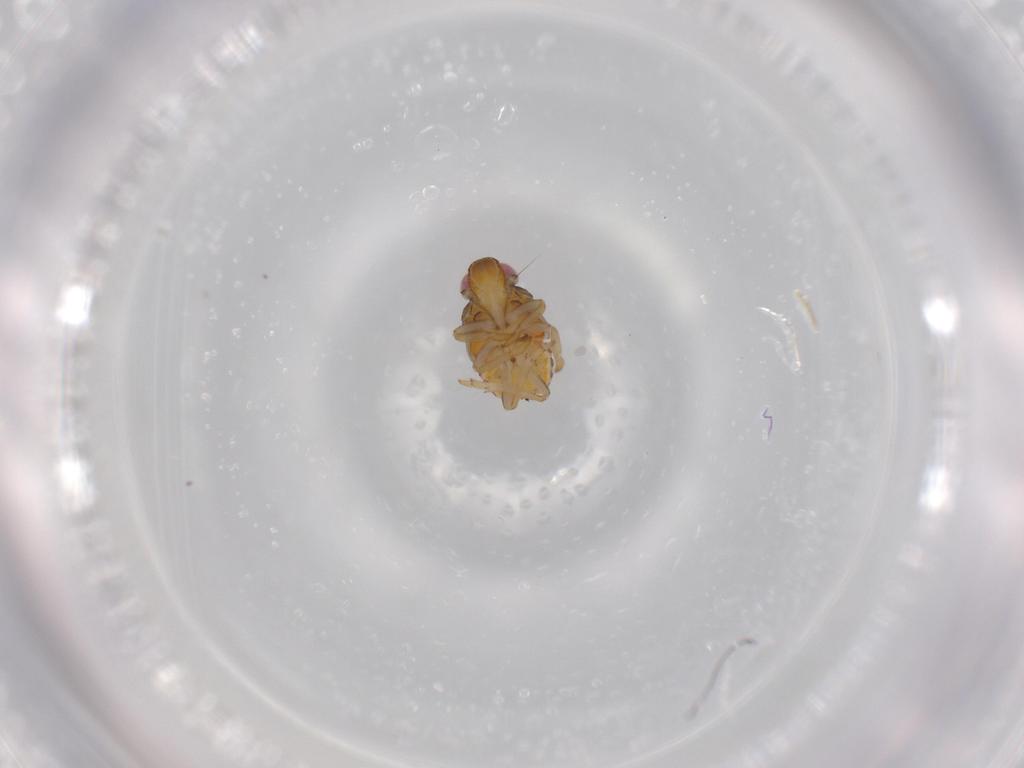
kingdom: Animalia
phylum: Arthropoda
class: Insecta
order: Hemiptera
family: Issidae
